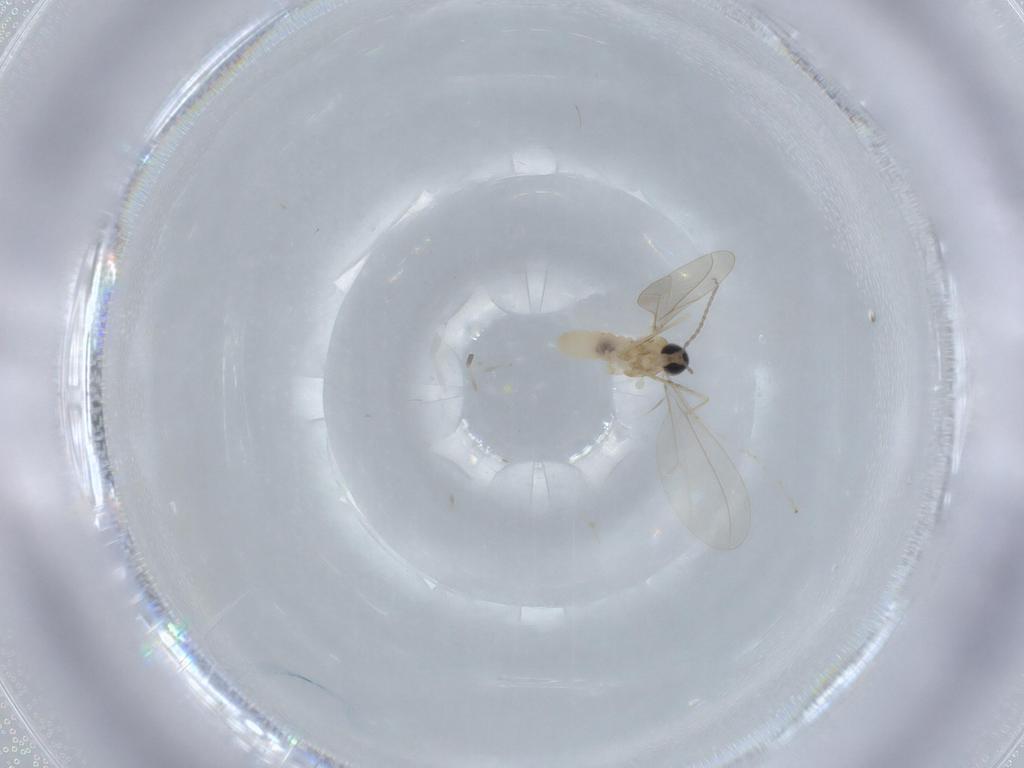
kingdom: Animalia
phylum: Arthropoda
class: Insecta
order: Diptera
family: Cecidomyiidae
